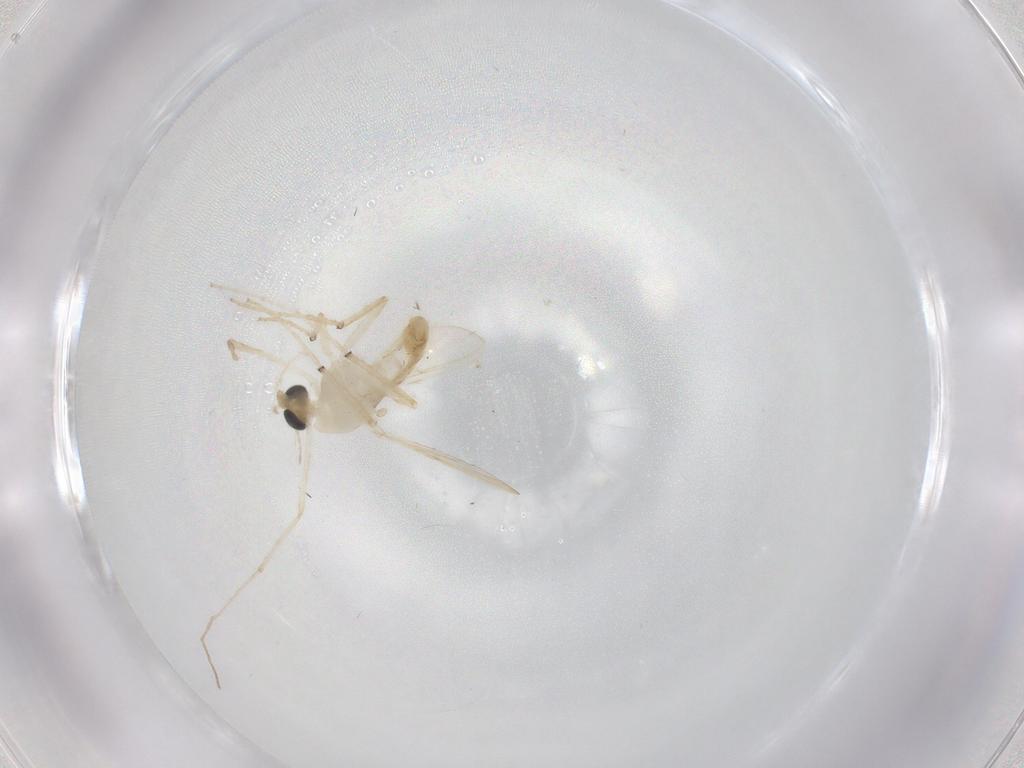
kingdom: Animalia
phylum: Arthropoda
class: Insecta
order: Diptera
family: Chironomidae
